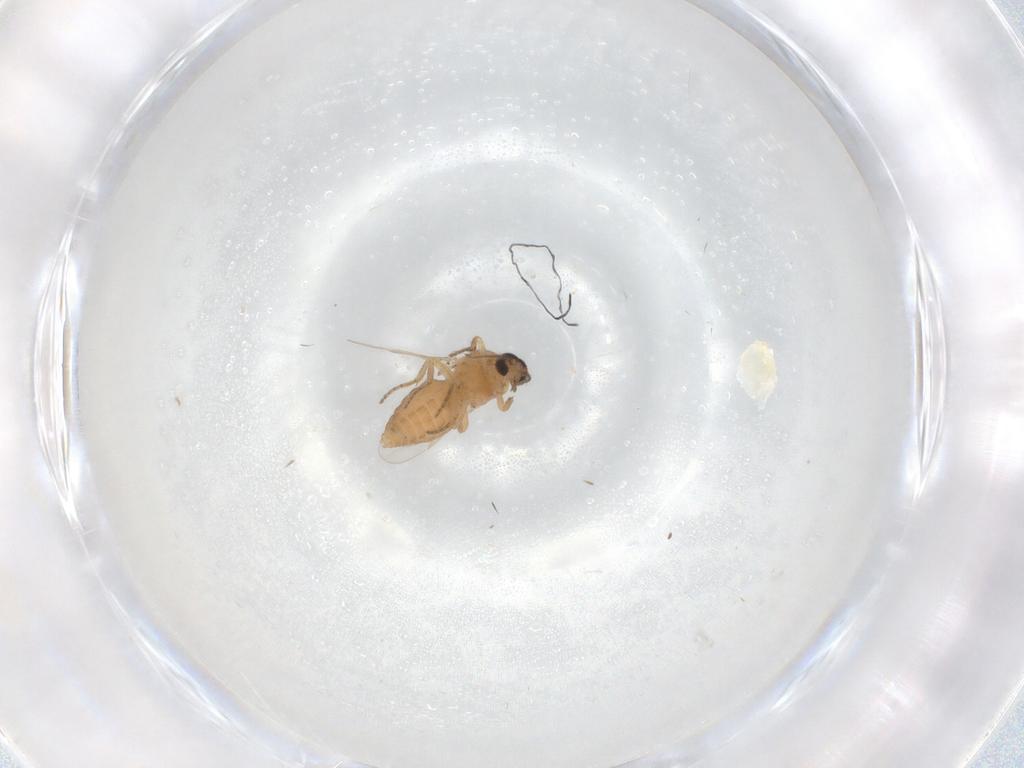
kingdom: Animalia
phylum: Arthropoda
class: Insecta
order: Diptera
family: Ceratopogonidae
